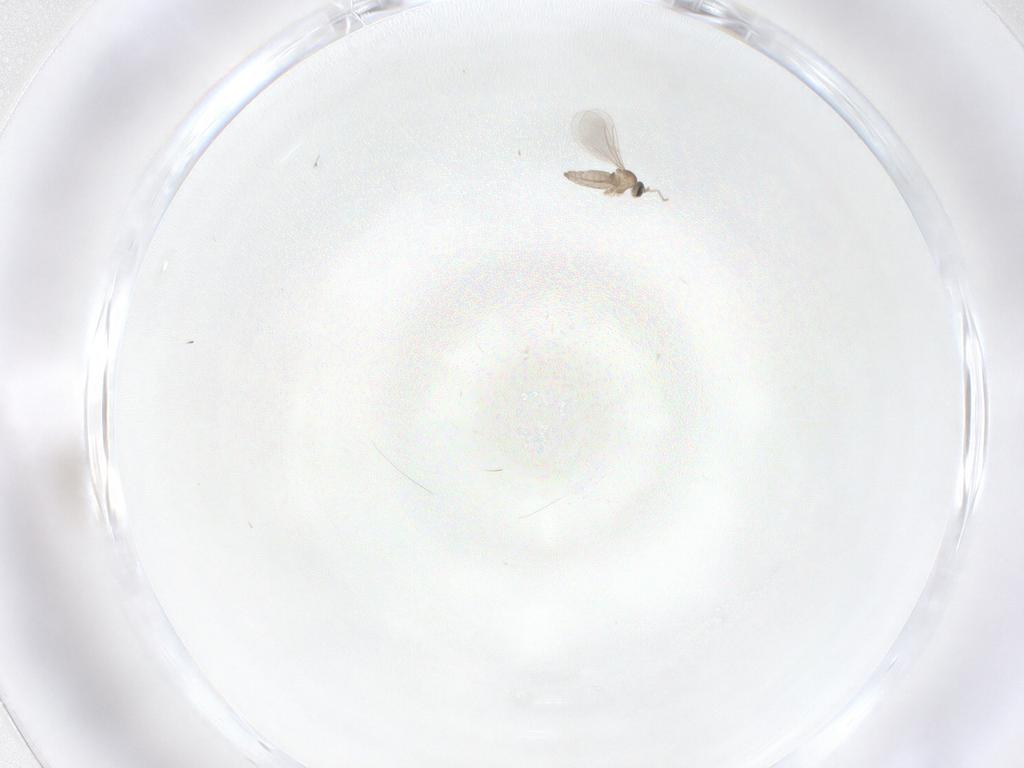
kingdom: Animalia
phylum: Arthropoda
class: Insecta
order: Diptera
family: Cecidomyiidae
